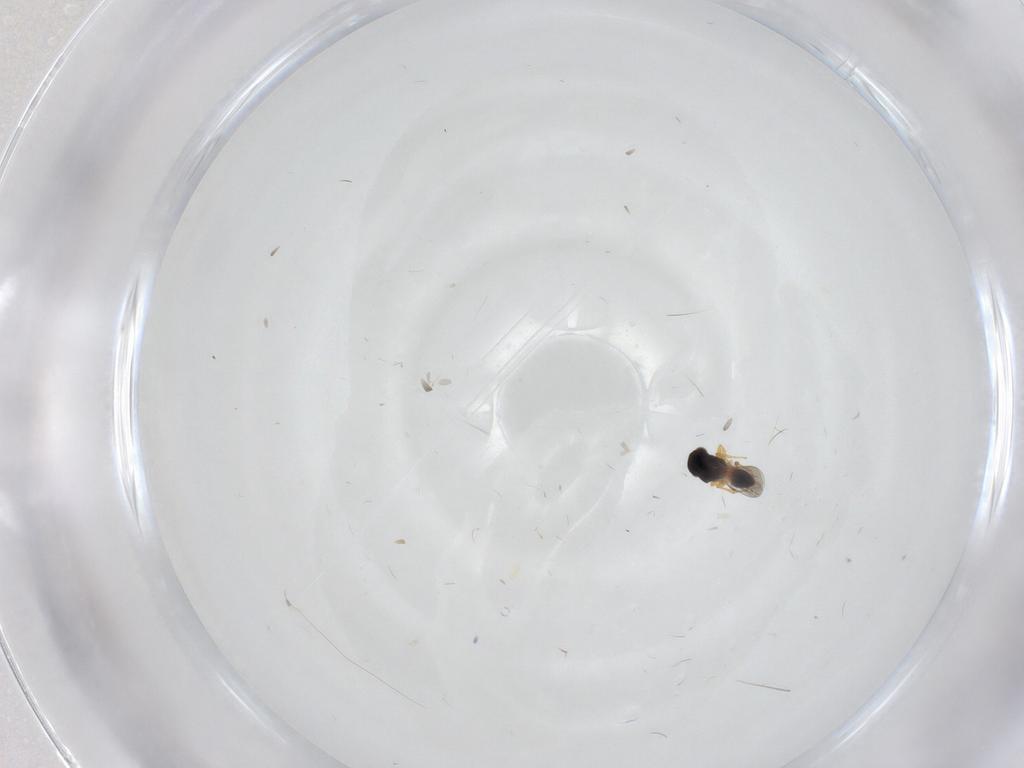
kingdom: Animalia
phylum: Arthropoda
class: Insecta
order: Hymenoptera
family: Platygastridae
